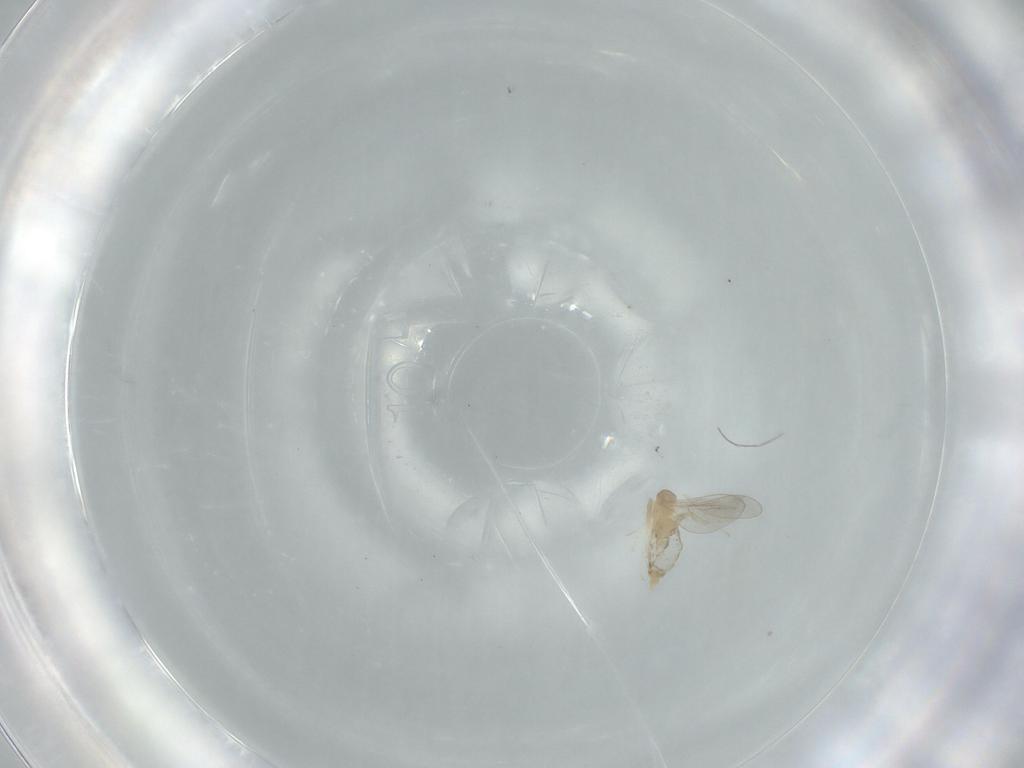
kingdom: Animalia
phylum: Arthropoda
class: Insecta
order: Diptera
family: Cecidomyiidae
